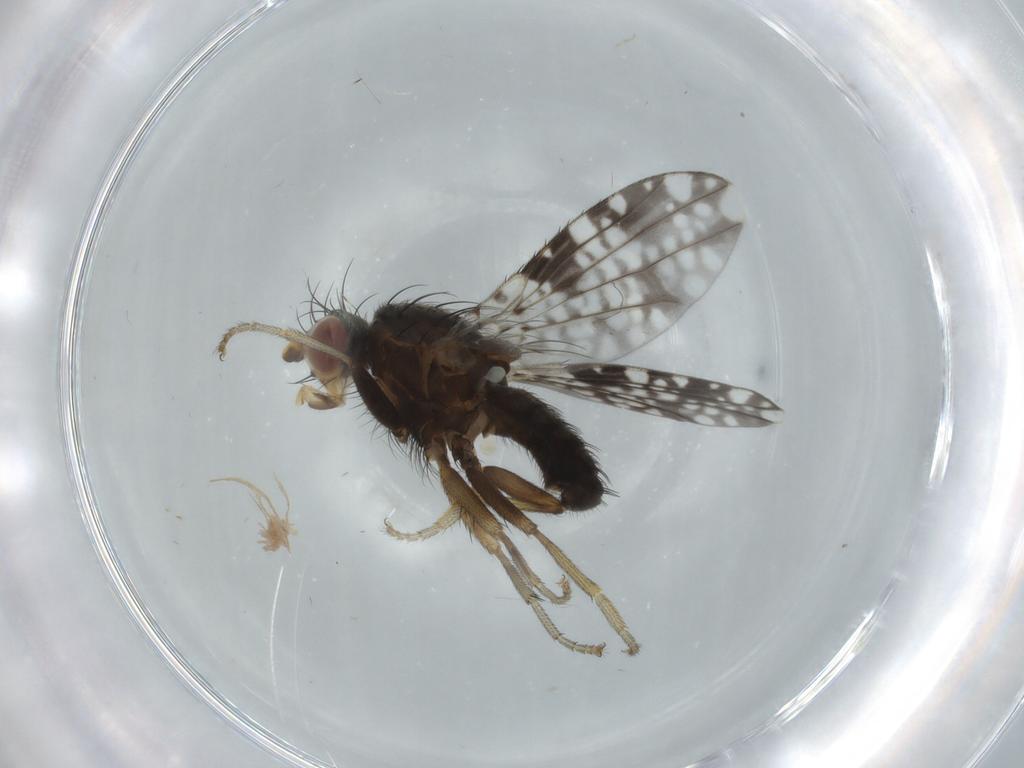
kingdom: Animalia
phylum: Arthropoda
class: Insecta
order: Diptera
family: Tephritidae
